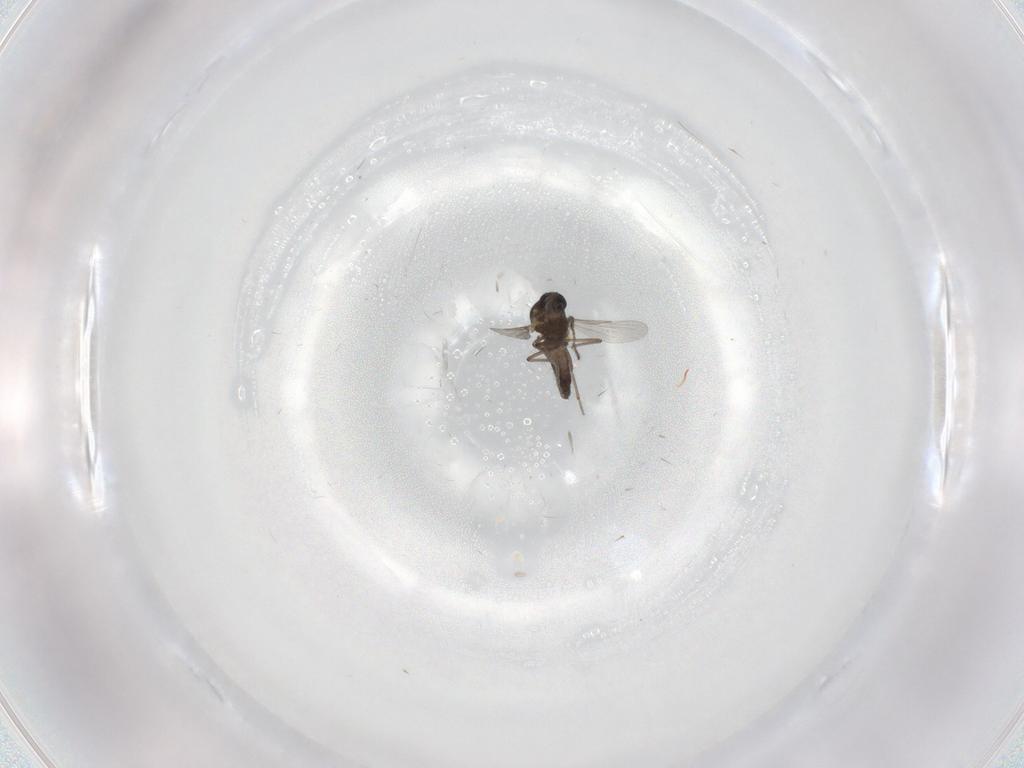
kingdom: Animalia
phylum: Arthropoda
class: Insecta
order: Diptera
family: Ceratopogonidae
